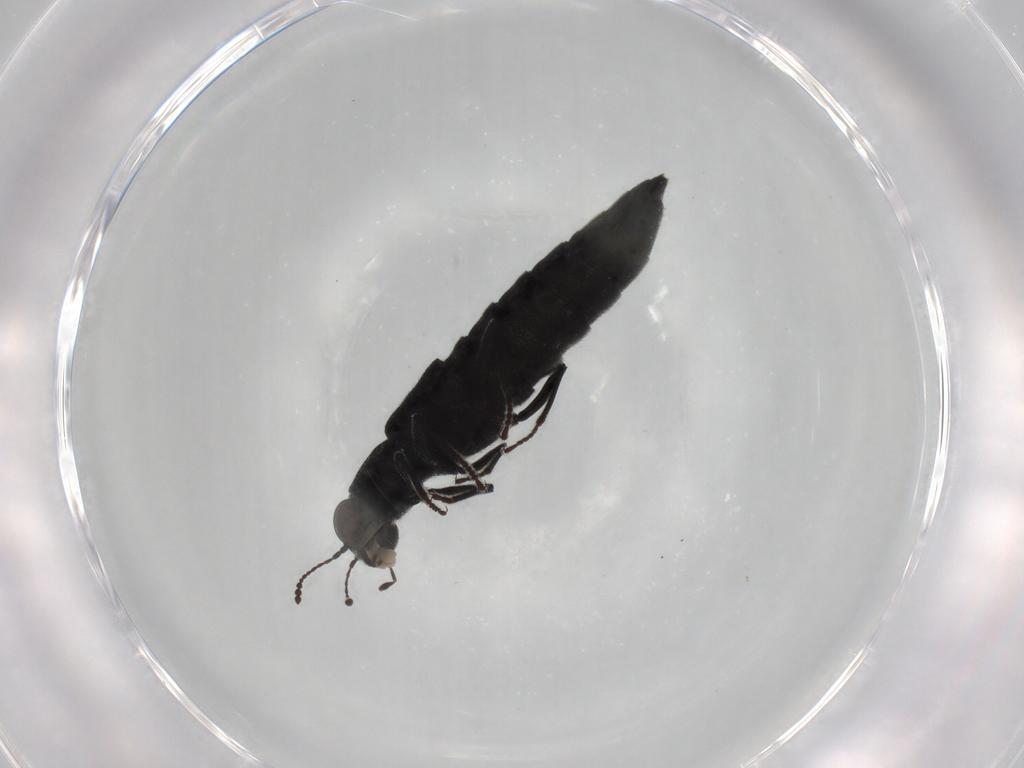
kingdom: Animalia
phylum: Arthropoda
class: Insecta
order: Coleoptera
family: Staphylinidae
